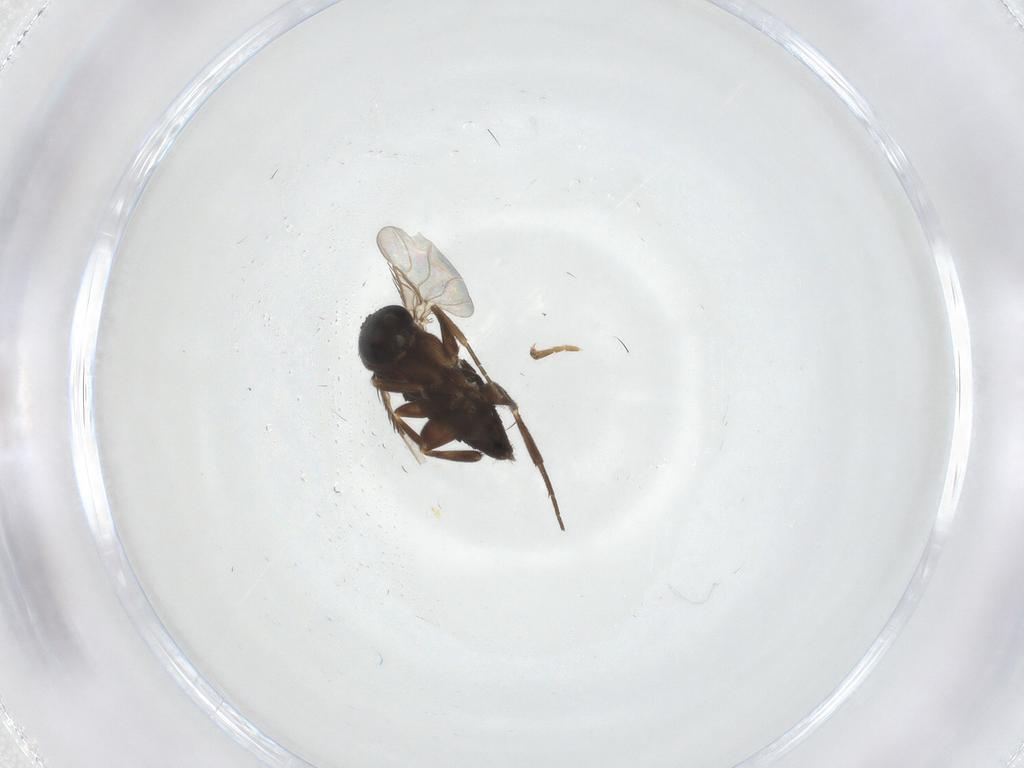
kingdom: Animalia
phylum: Arthropoda
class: Insecta
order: Diptera
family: Phoridae
